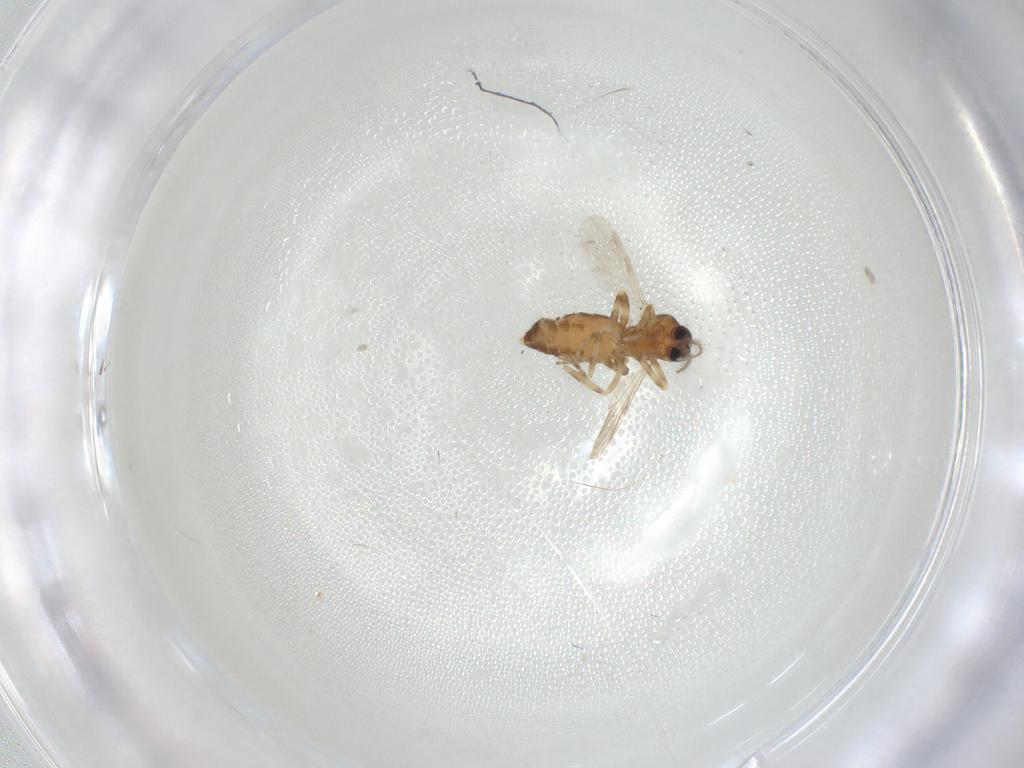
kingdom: Animalia
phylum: Arthropoda
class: Insecta
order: Diptera
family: Ceratopogonidae
